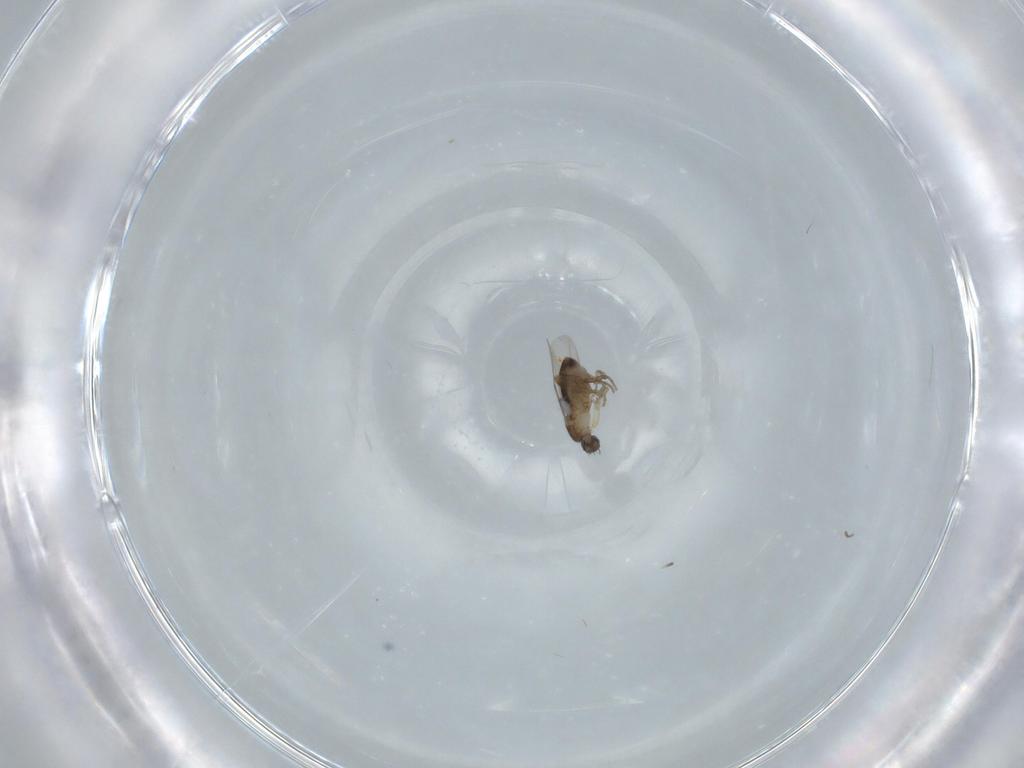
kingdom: Animalia
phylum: Arthropoda
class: Insecta
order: Diptera
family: Phoridae
